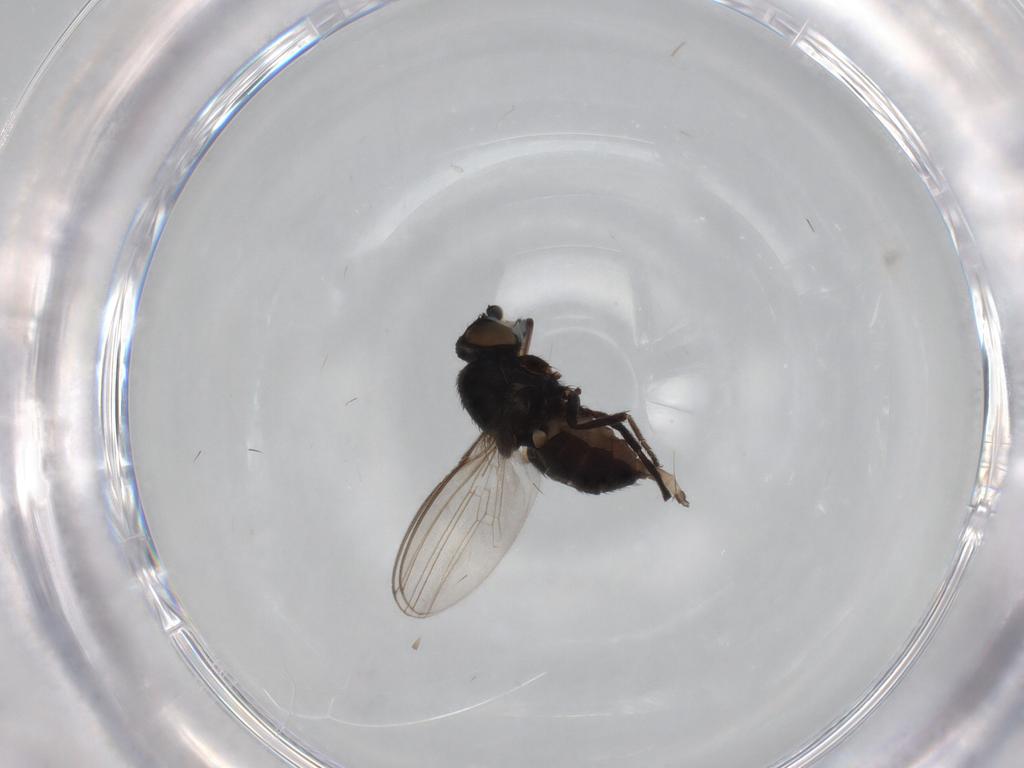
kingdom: Animalia
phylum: Arthropoda
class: Insecta
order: Diptera
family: Milichiidae
